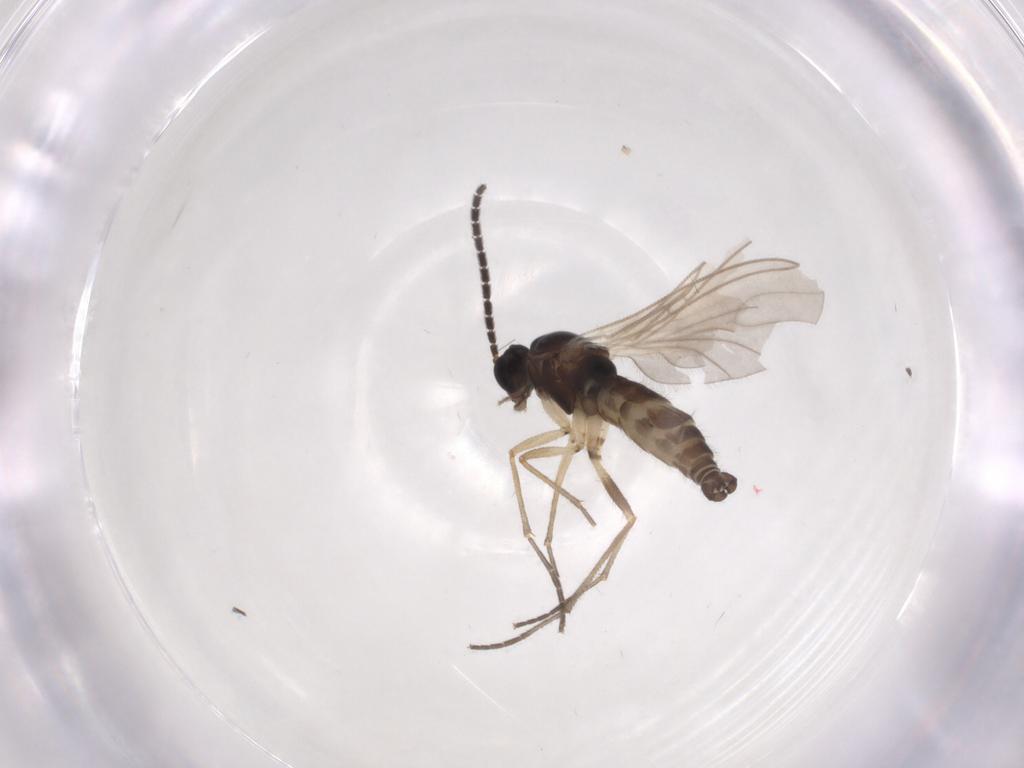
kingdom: Animalia
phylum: Arthropoda
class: Insecta
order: Diptera
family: Sciaridae
